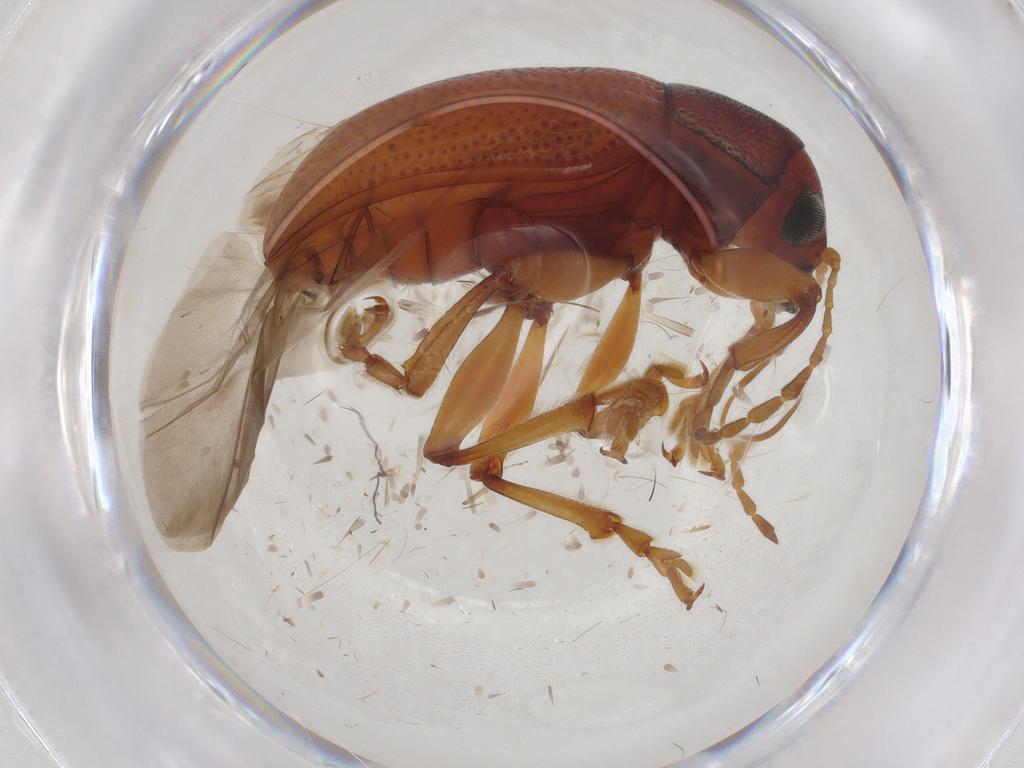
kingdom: Animalia
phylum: Arthropoda
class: Insecta
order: Coleoptera
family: Chrysomelidae
